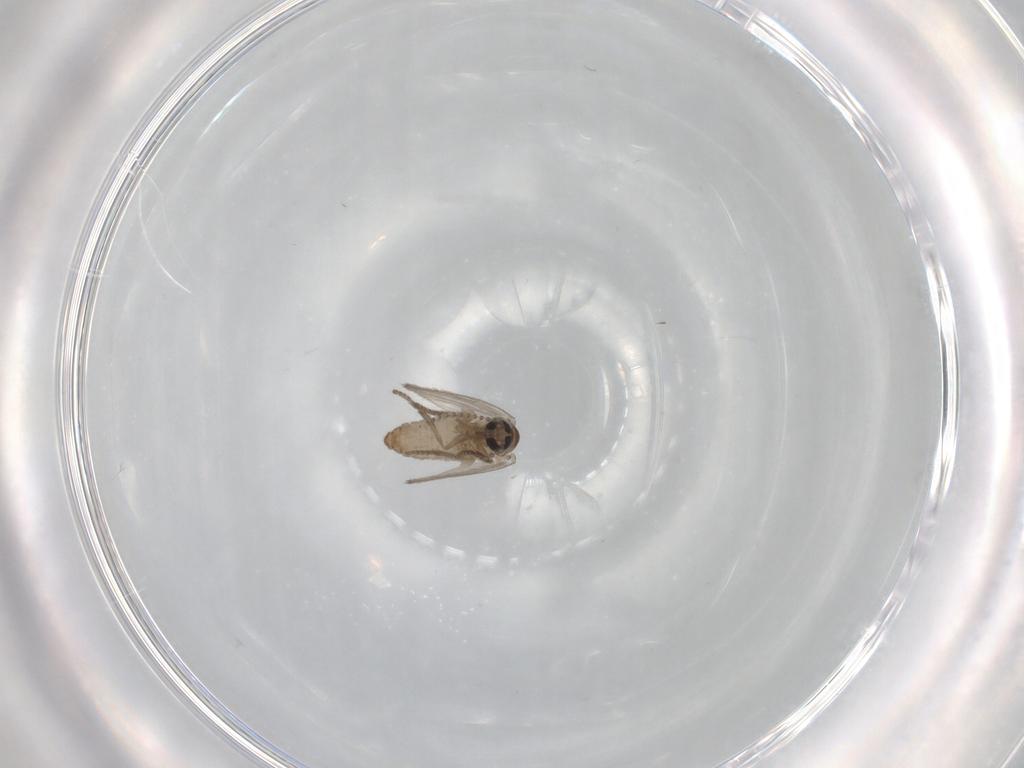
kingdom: Animalia
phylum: Arthropoda
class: Insecta
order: Diptera
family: Psychodidae
